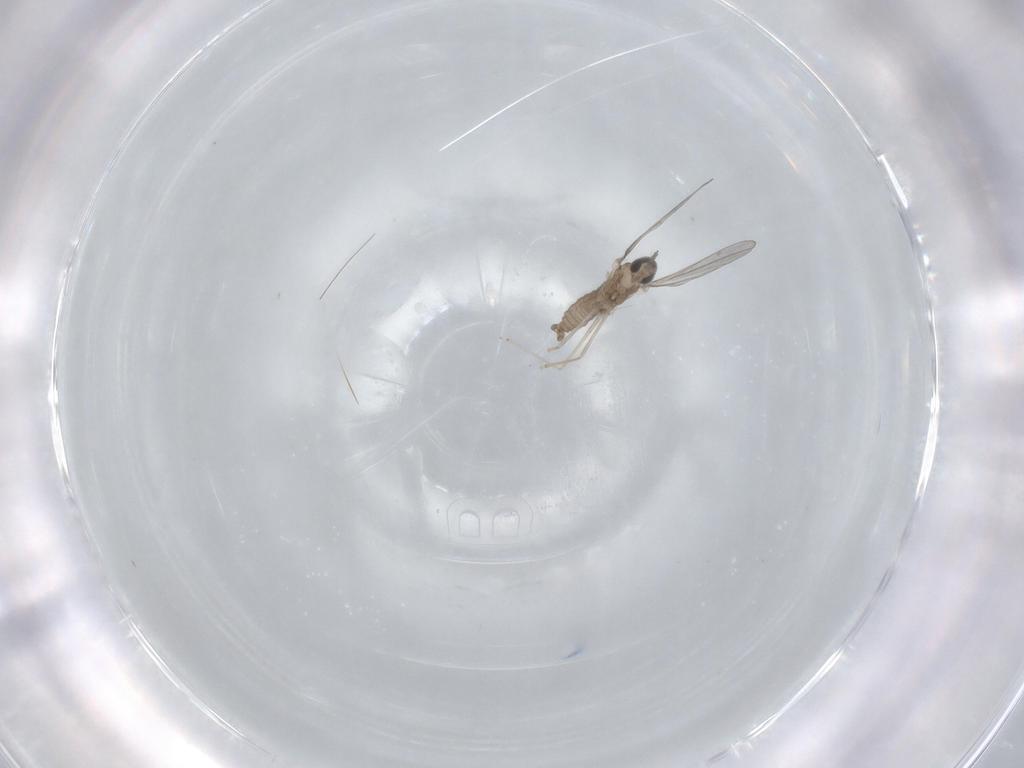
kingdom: Animalia
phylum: Arthropoda
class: Insecta
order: Diptera
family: Cecidomyiidae
